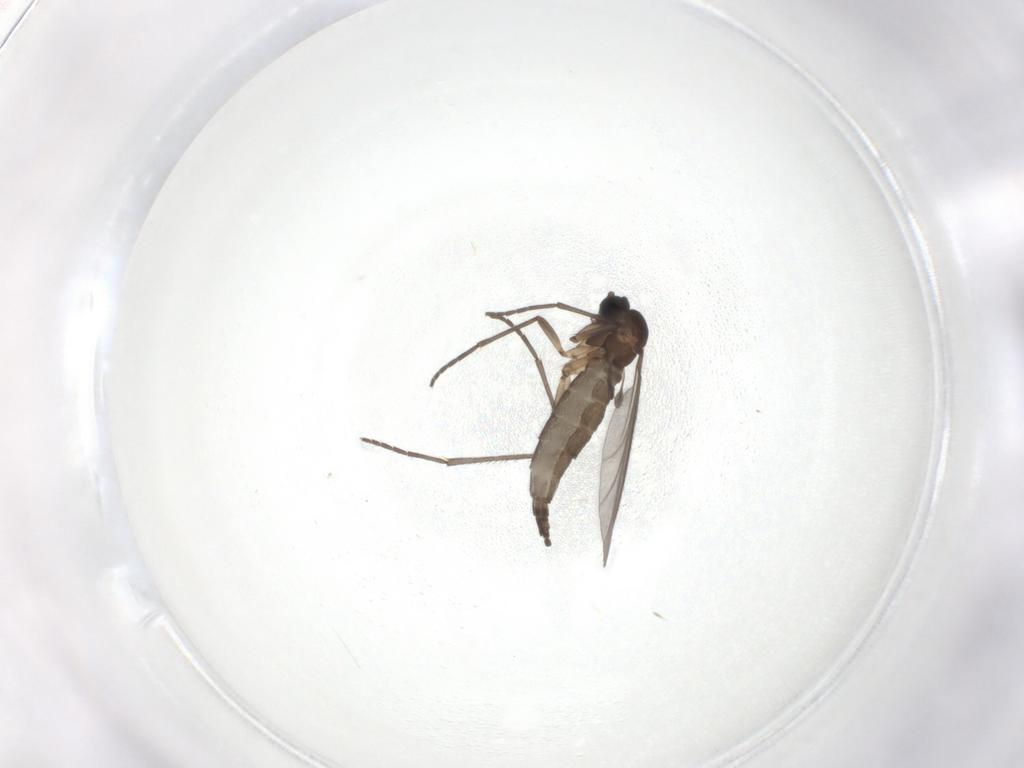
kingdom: Animalia
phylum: Arthropoda
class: Insecta
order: Diptera
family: Sciaridae
